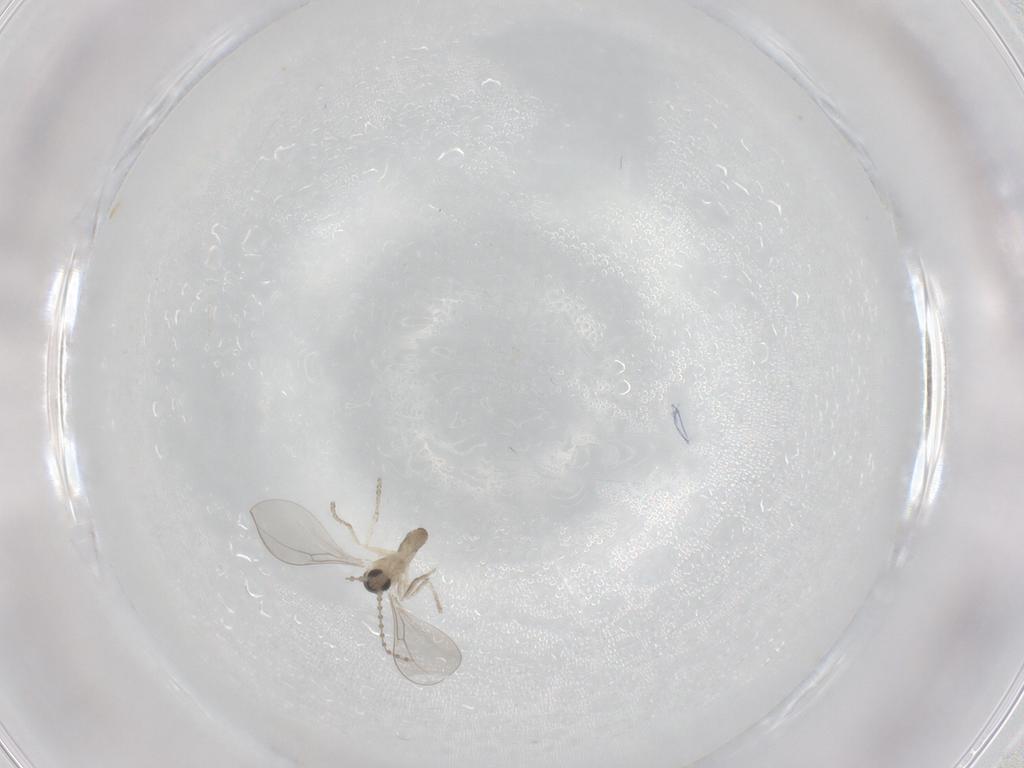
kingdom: Animalia
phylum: Arthropoda
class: Insecta
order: Diptera
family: Cecidomyiidae
